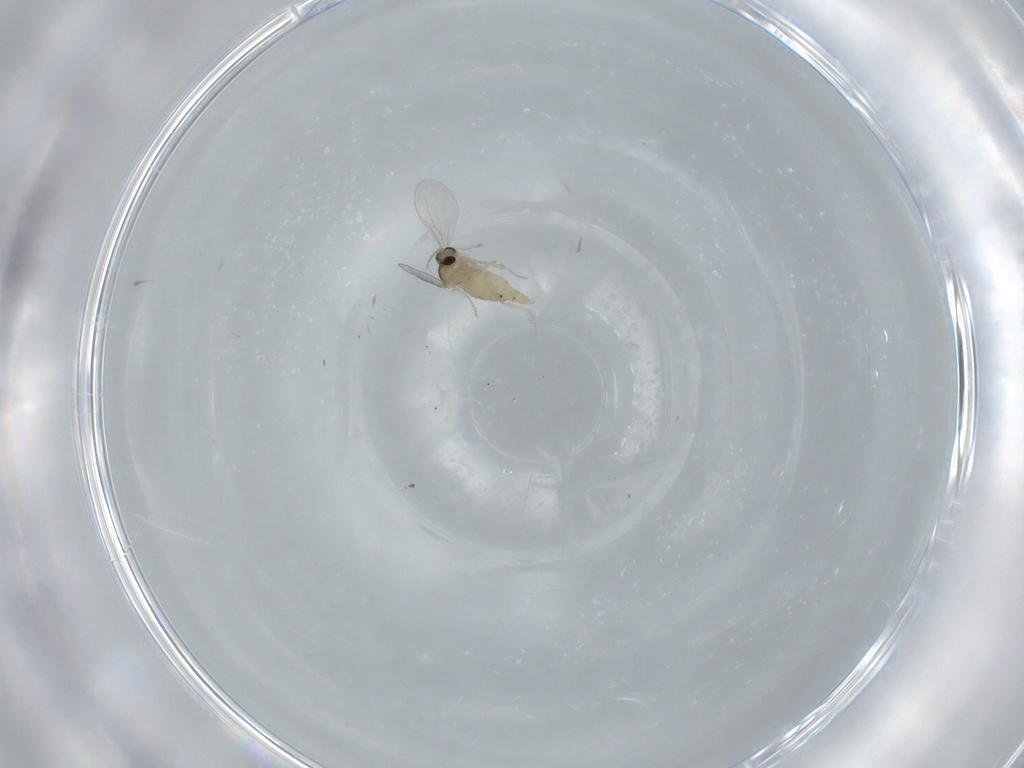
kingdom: Animalia
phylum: Arthropoda
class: Insecta
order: Diptera
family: Cecidomyiidae
